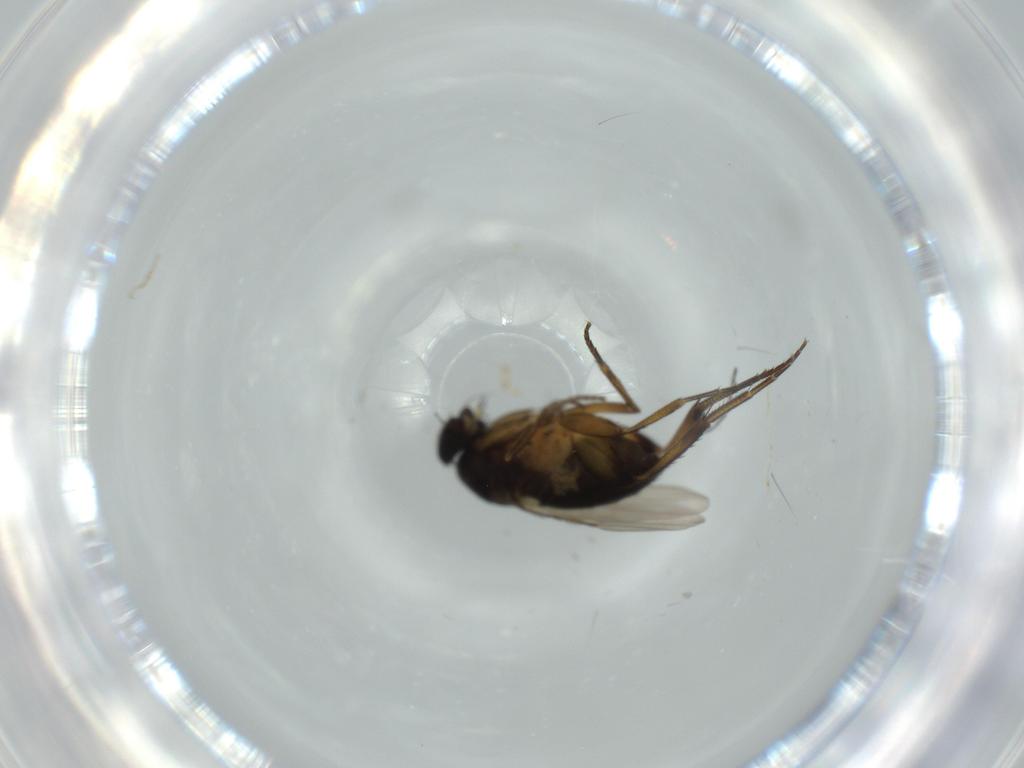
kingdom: Animalia
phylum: Arthropoda
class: Insecta
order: Diptera
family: Phoridae
